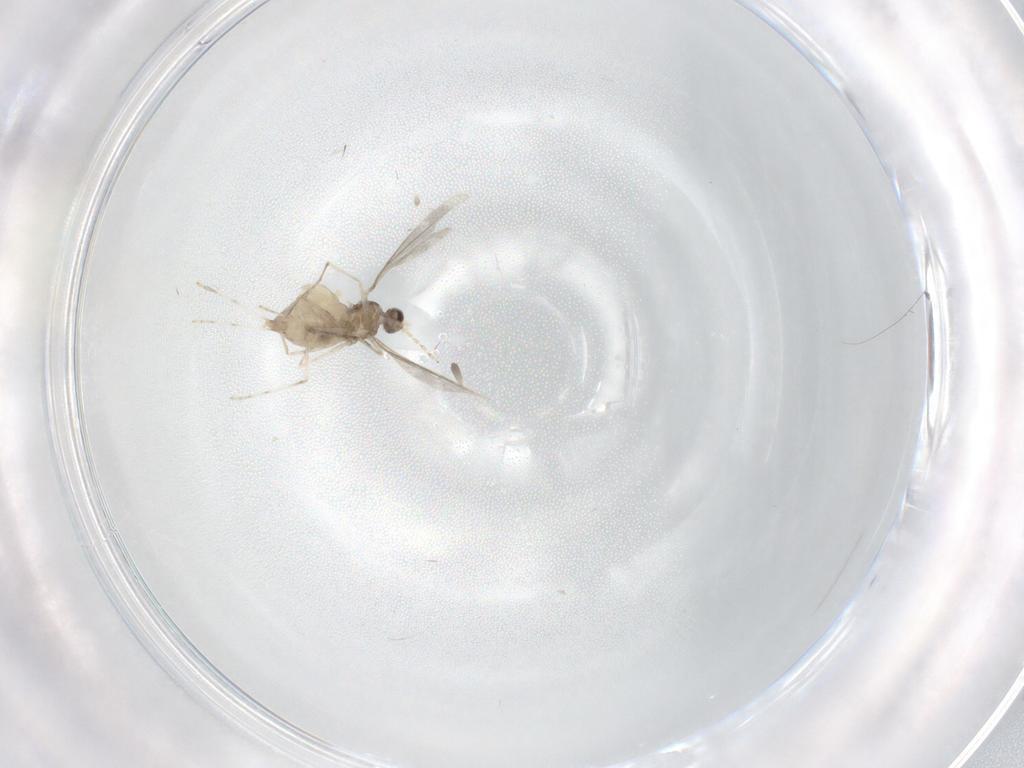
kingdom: Animalia
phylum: Arthropoda
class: Insecta
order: Diptera
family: Cecidomyiidae
